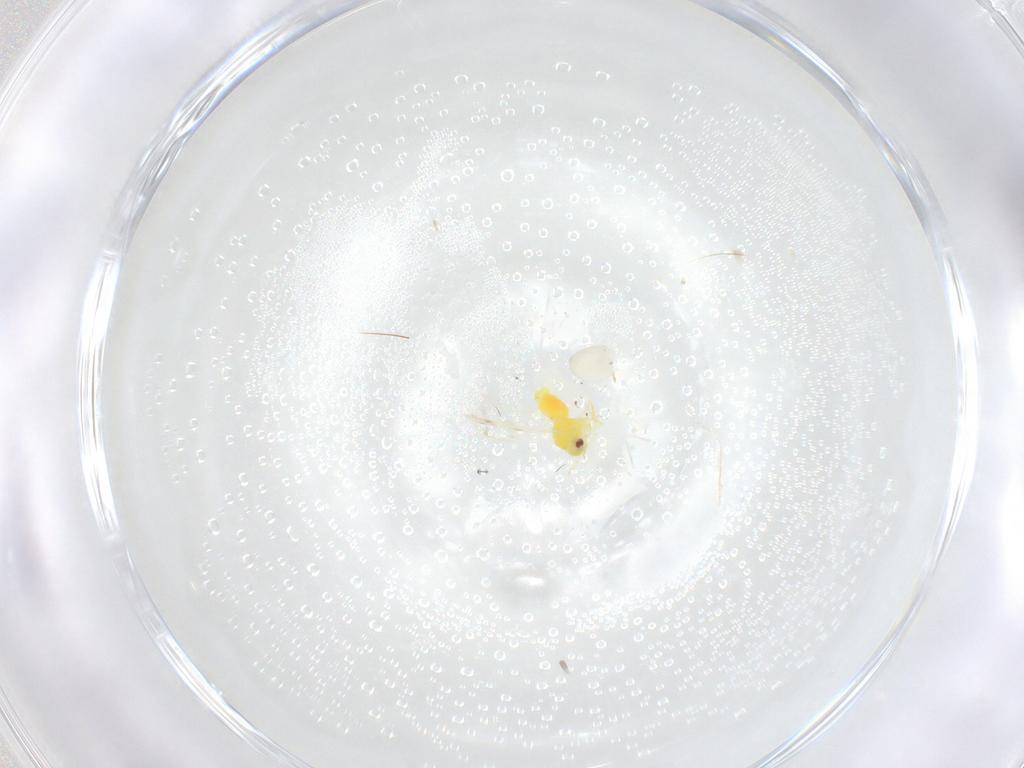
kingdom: Animalia
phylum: Arthropoda
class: Insecta
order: Hemiptera
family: Aleyrodidae
